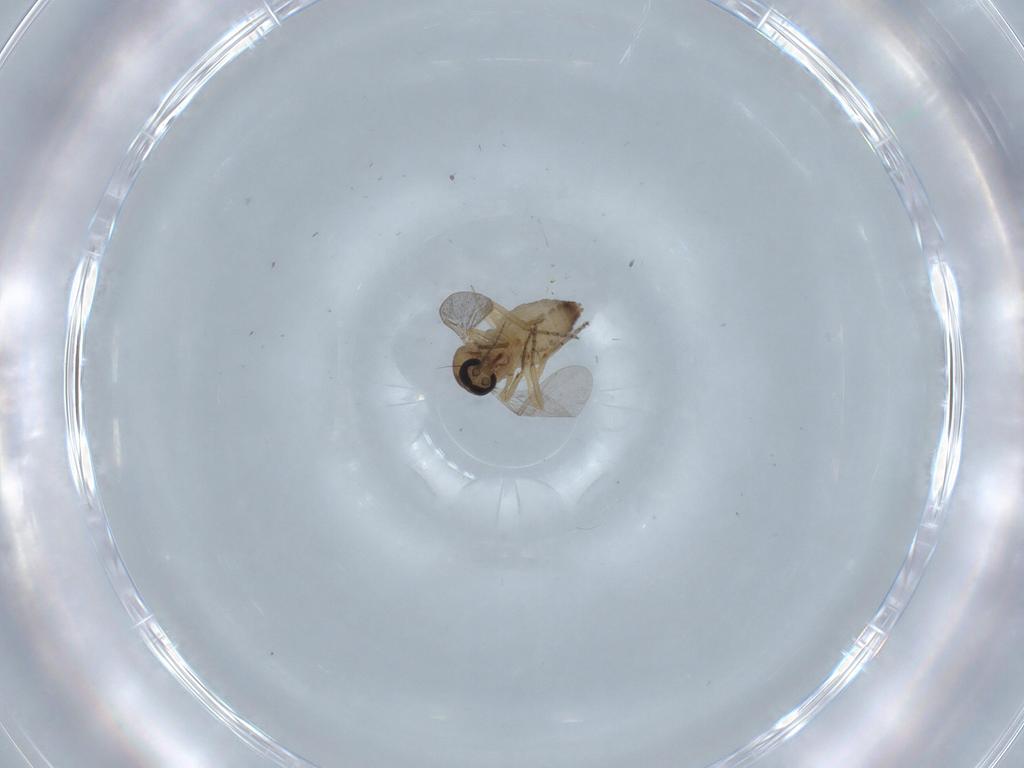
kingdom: Animalia
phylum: Arthropoda
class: Insecta
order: Diptera
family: Ceratopogonidae
